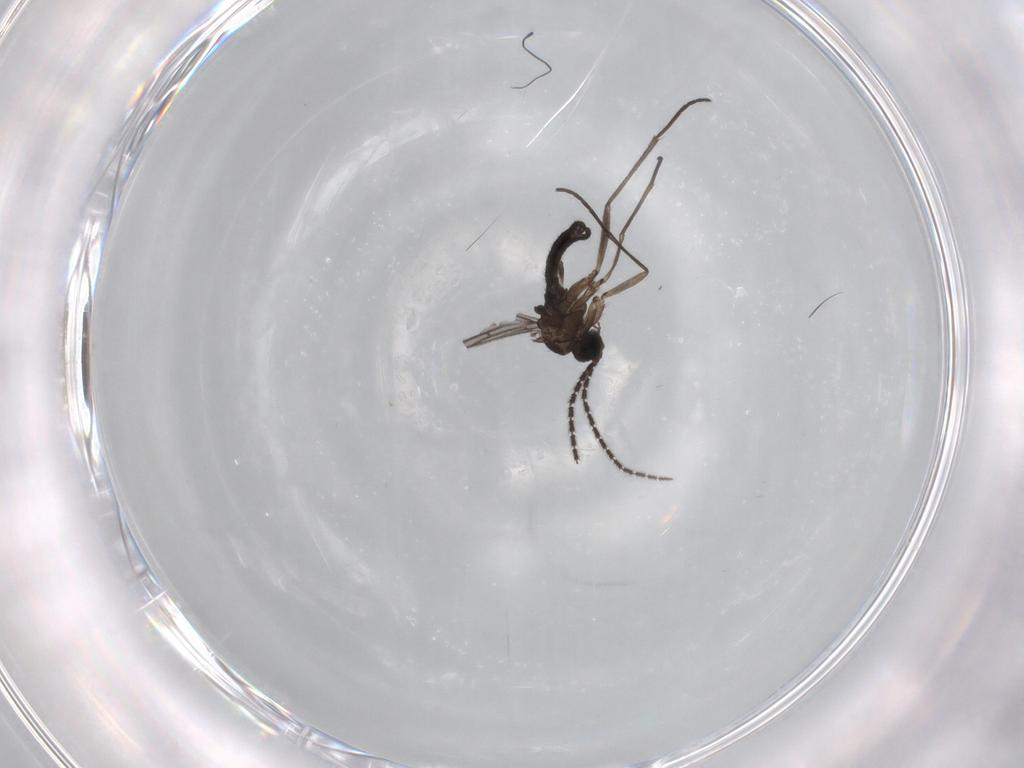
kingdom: Animalia
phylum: Arthropoda
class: Insecta
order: Diptera
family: Sciaridae
